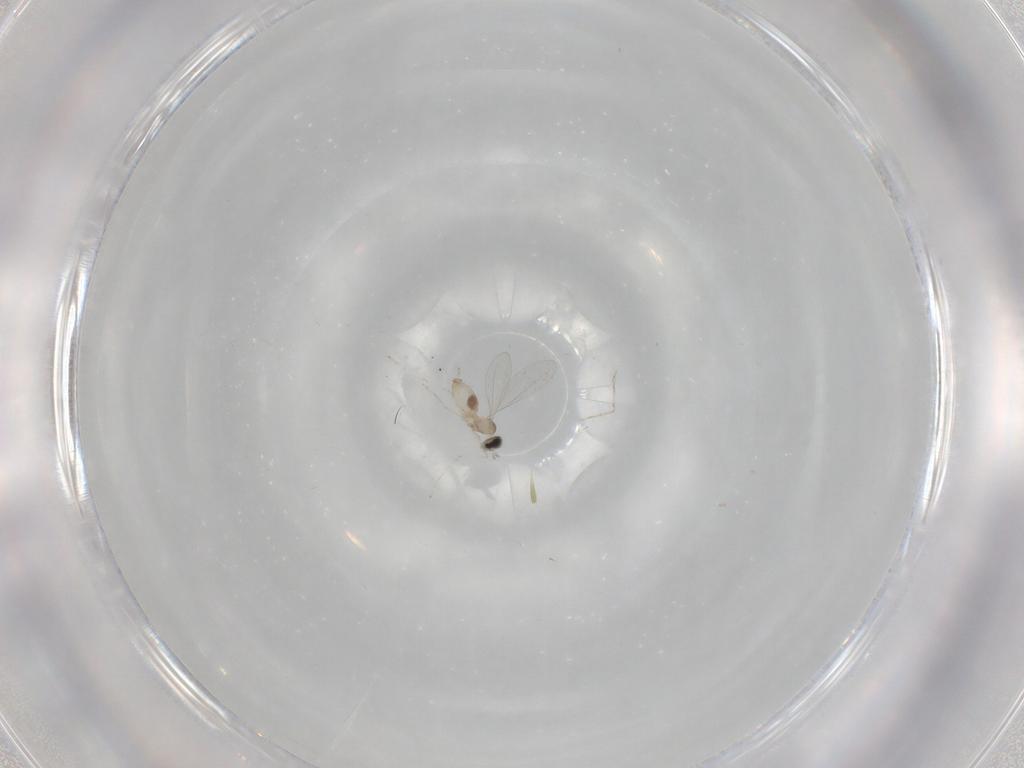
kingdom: Animalia
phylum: Arthropoda
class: Insecta
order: Diptera
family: Cecidomyiidae
